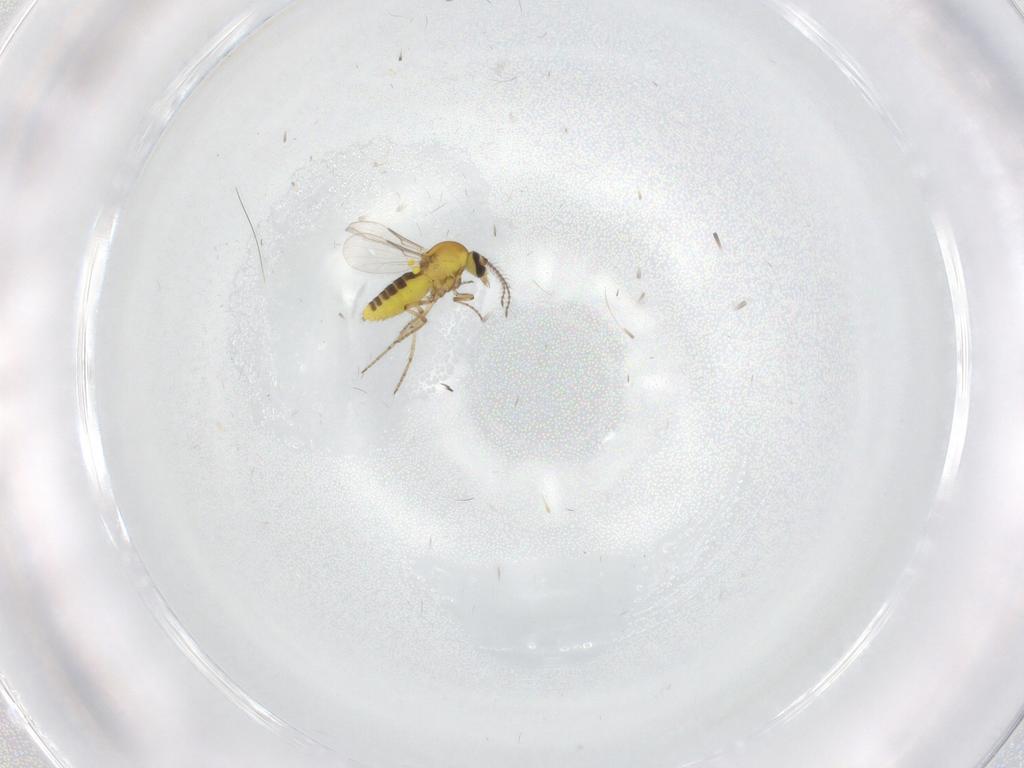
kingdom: Animalia
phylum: Arthropoda
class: Insecta
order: Diptera
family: Ceratopogonidae
